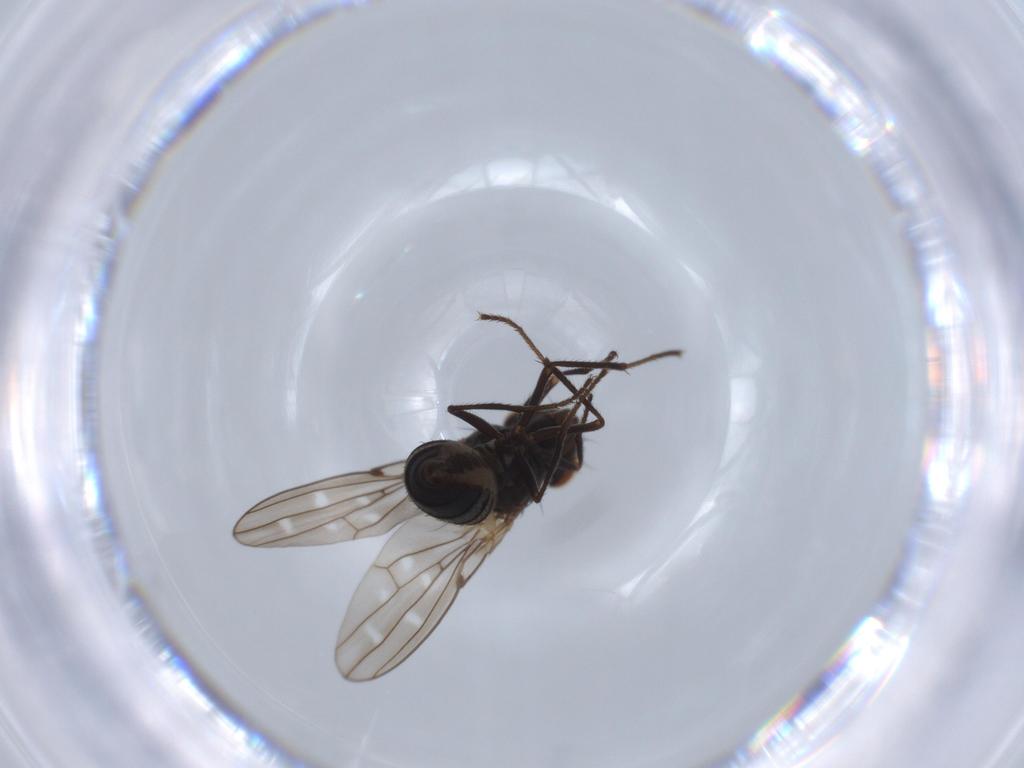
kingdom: Animalia
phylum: Arthropoda
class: Insecta
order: Diptera
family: Ephydridae
